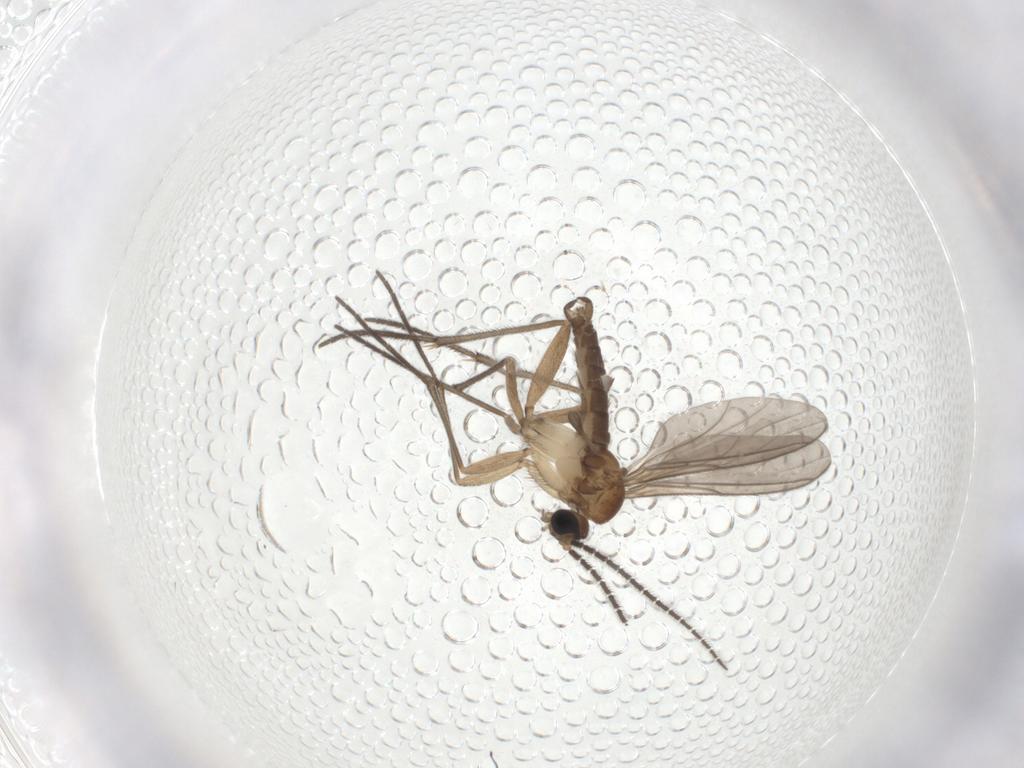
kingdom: Animalia
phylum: Arthropoda
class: Insecta
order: Diptera
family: Sciaridae
